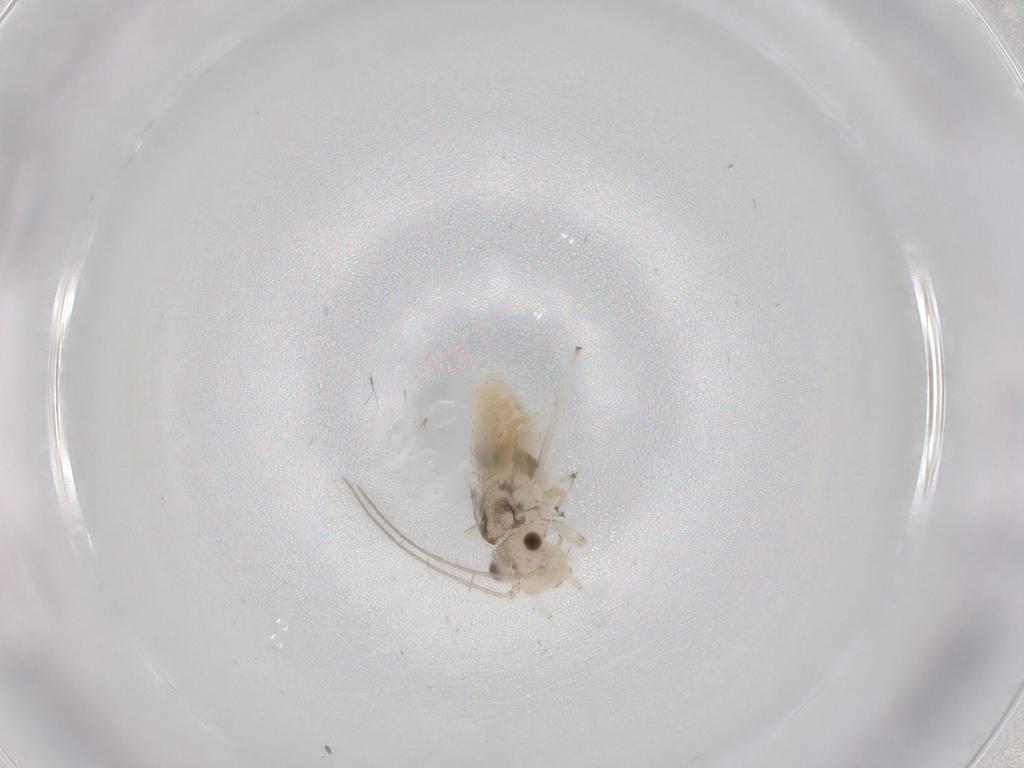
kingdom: Animalia
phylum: Arthropoda
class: Insecta
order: Psocodea
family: Caeciliusidae
